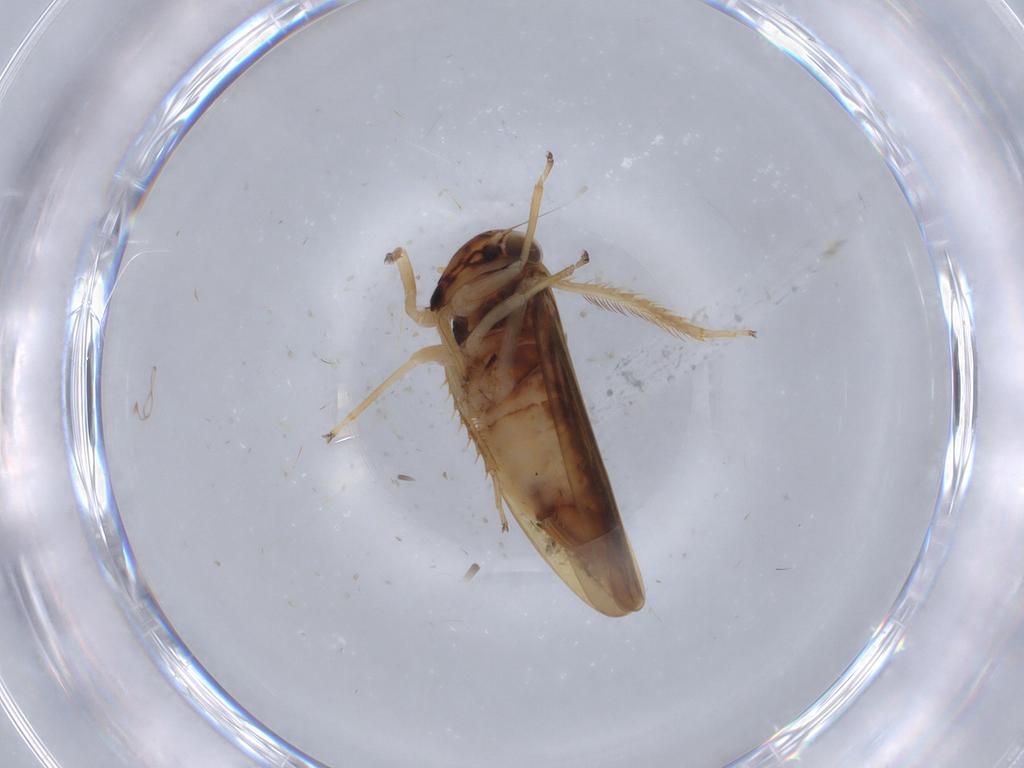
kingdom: Animalia
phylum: Arthropoda
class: Insecta
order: Hemiptera
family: Cicadellidae
